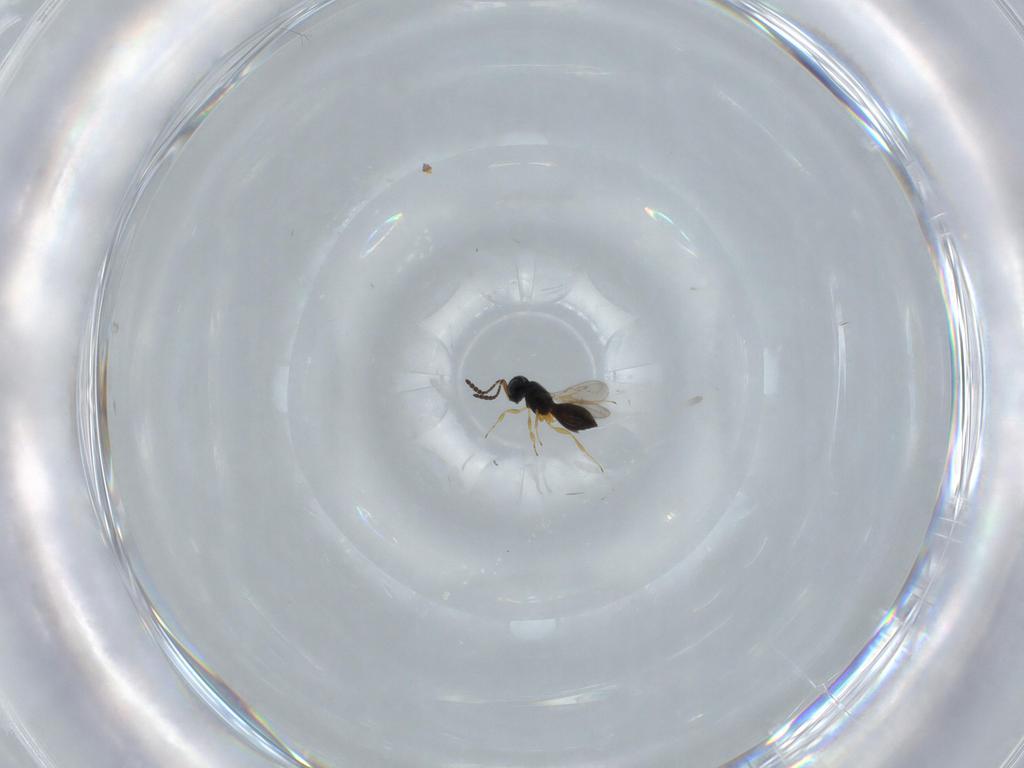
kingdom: Animalia
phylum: Arthropoda
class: Insecta
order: Hymenoptera
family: Scelionidae
